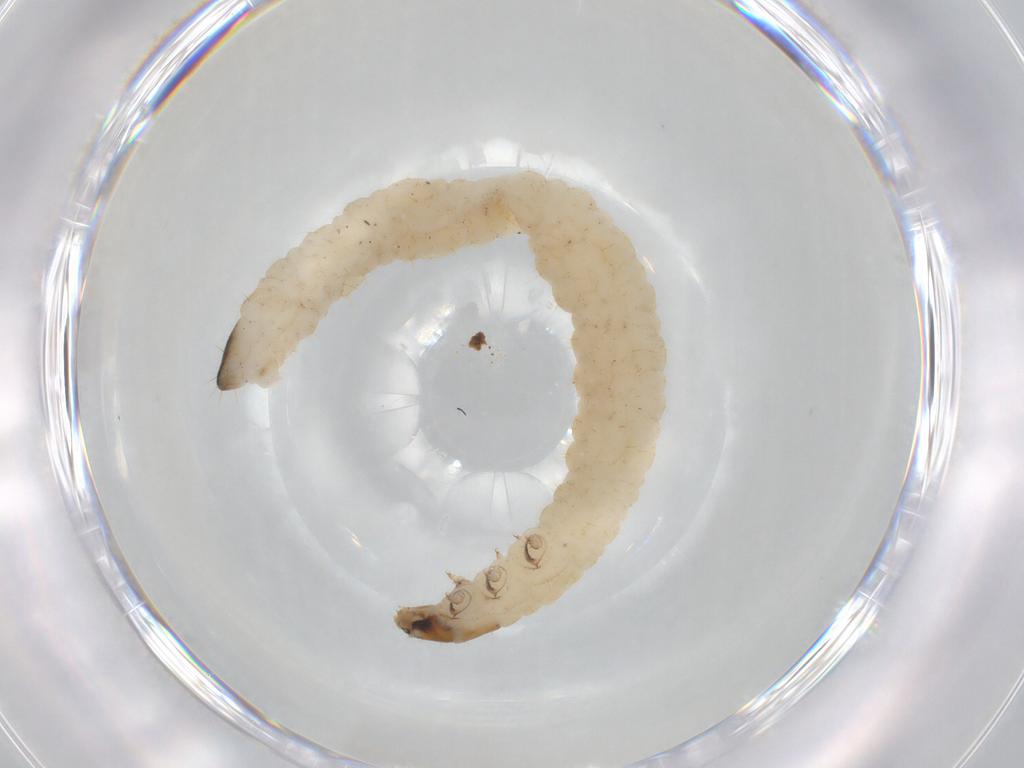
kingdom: Animalia
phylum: Arthropoda
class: Insecta
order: Coleoptera
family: Chrysomelidae
